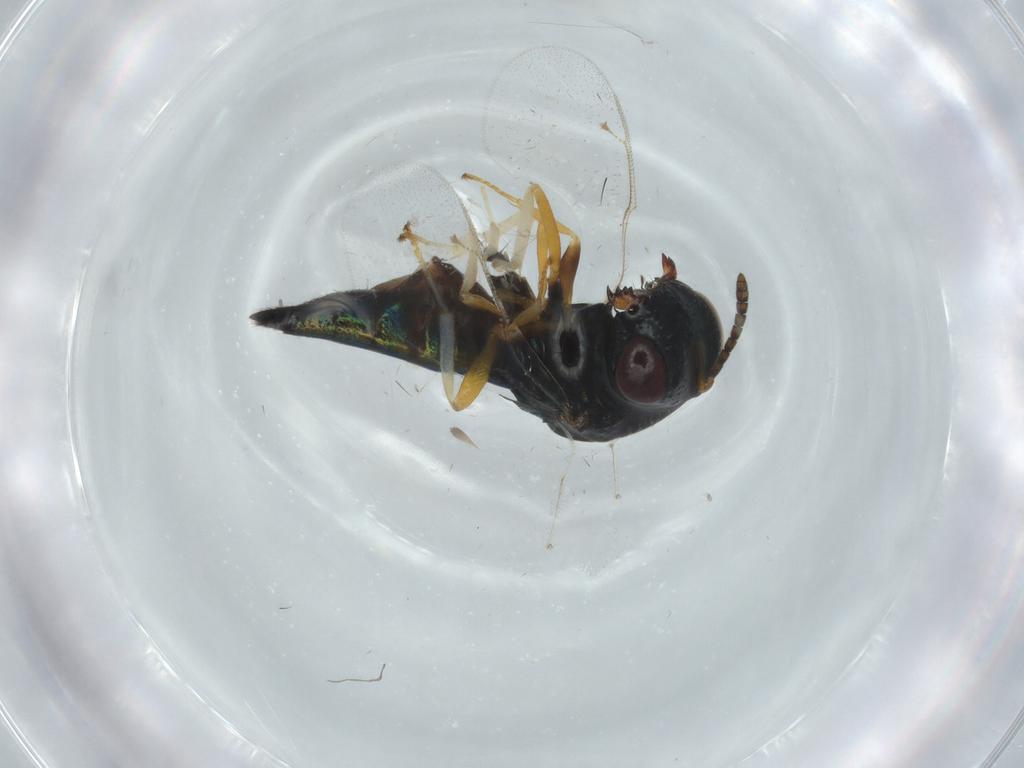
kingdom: Animalia
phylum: Arthropoda
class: Insecta
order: Hymenoptera
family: Pteromalidae
